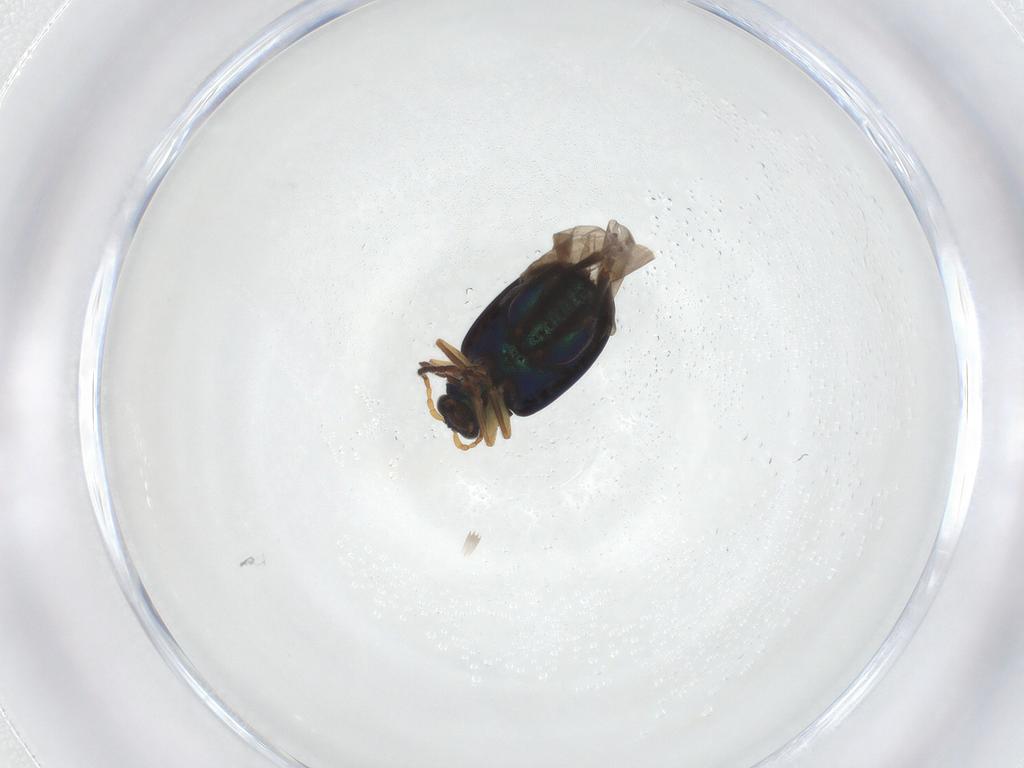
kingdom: Animalia
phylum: Arthropoda
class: Insecta
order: Coleoptera
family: Chrysomelidae
